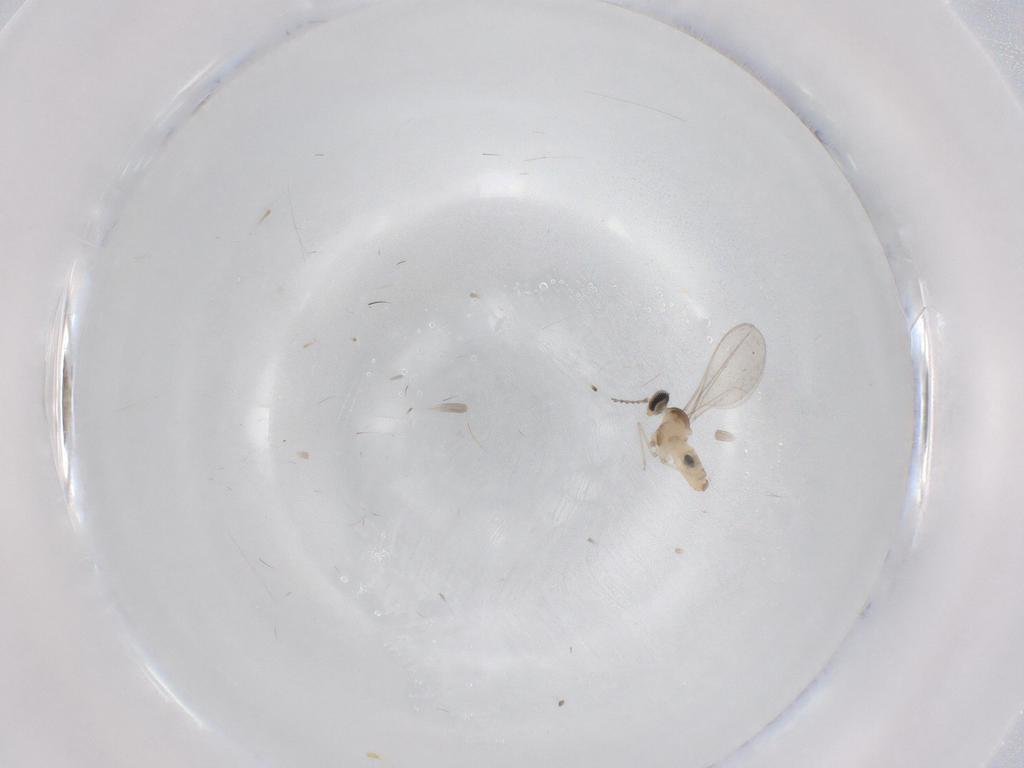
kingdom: Animalia
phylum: Arthropoda
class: Insecta
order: Diptera
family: Cecidomyiidae
